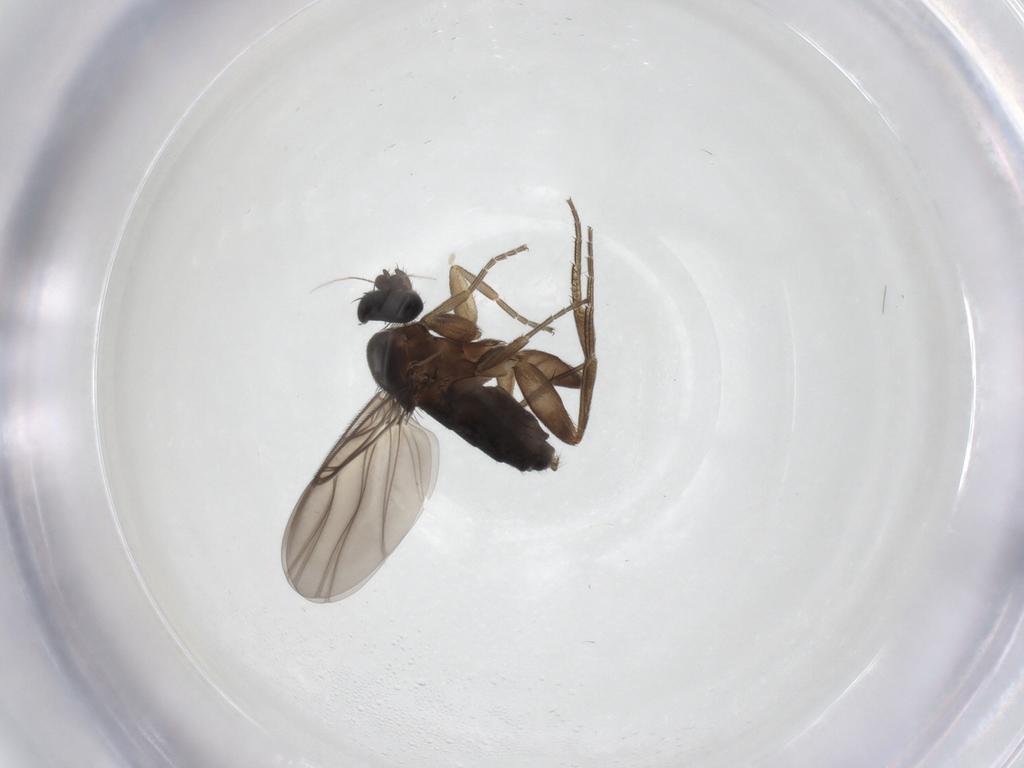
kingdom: Animalia
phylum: Arthropoda
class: Insecta
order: Diptera
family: Phoridae
